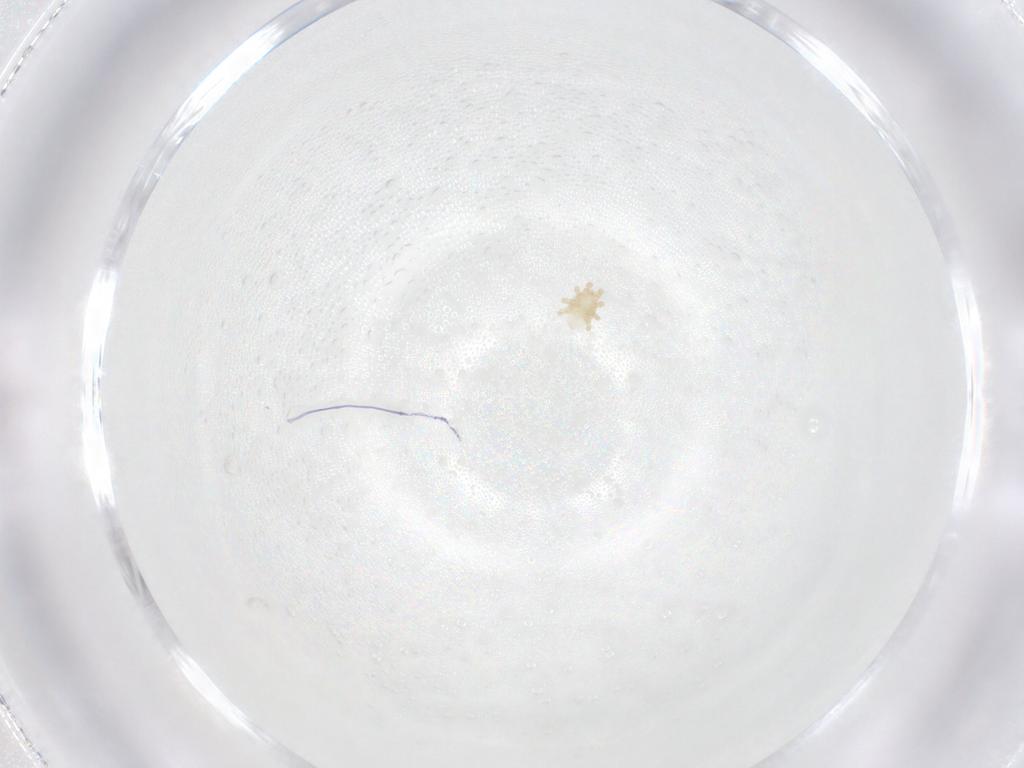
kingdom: Animalia
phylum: Arthropoda
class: Arachnida
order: Mesostigmata
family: Otopheidomenidae
